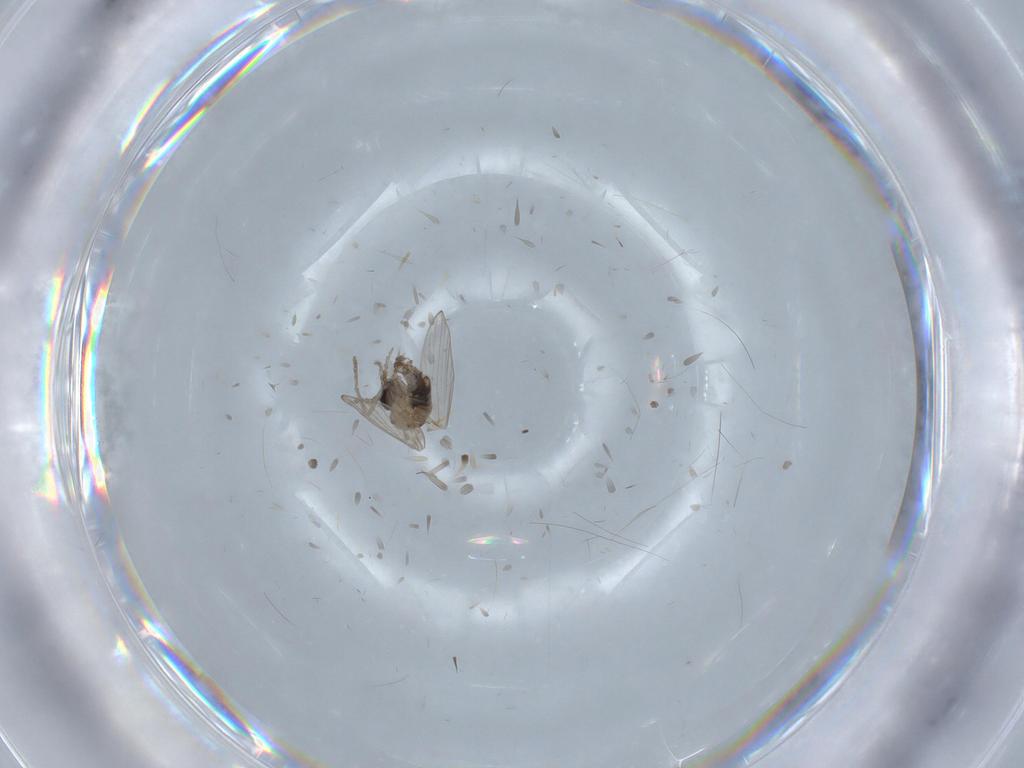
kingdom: Animalia
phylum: Arthropoda
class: Insecta
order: Diptera
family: Psychodidae
